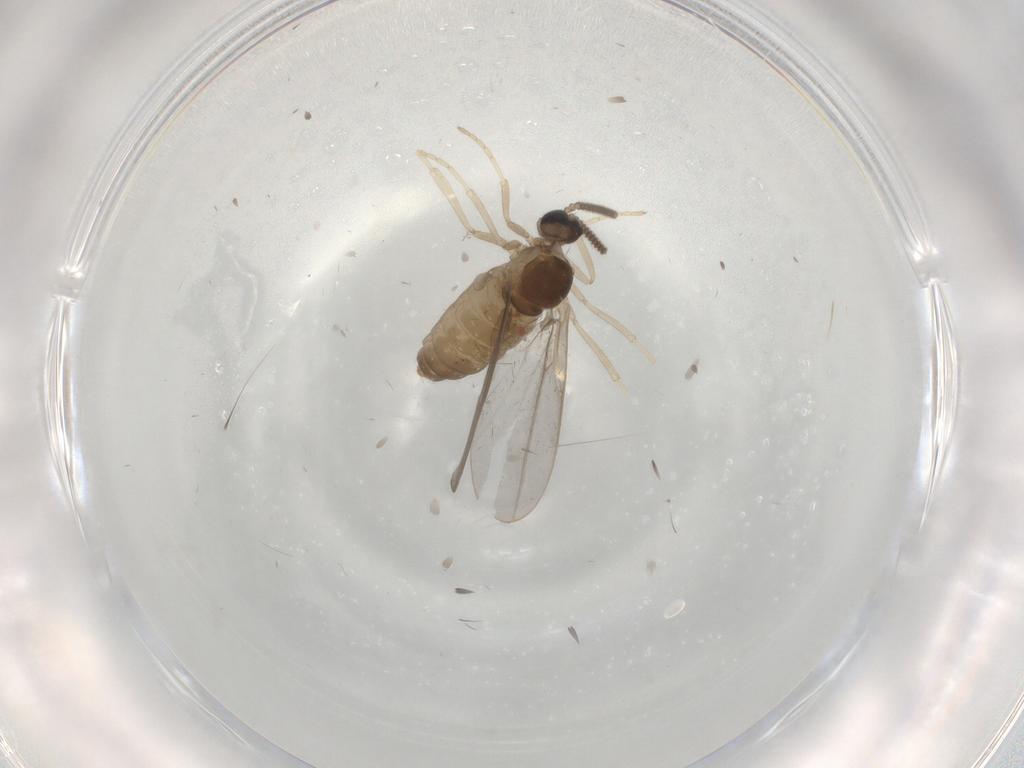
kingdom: Animalia
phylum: Arthropoda
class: Insecta
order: Diptera
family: Cecidomyiidae
